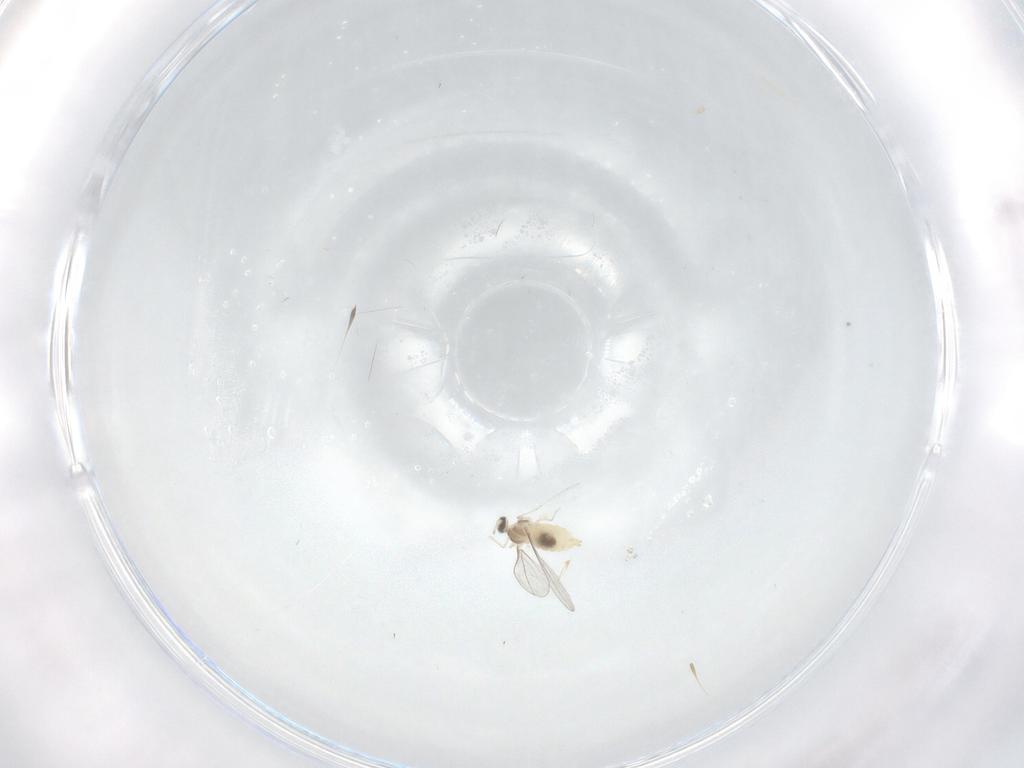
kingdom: Animalia
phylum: Arthropoda
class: Insecta
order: Diptera
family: Cecidomyiidae
